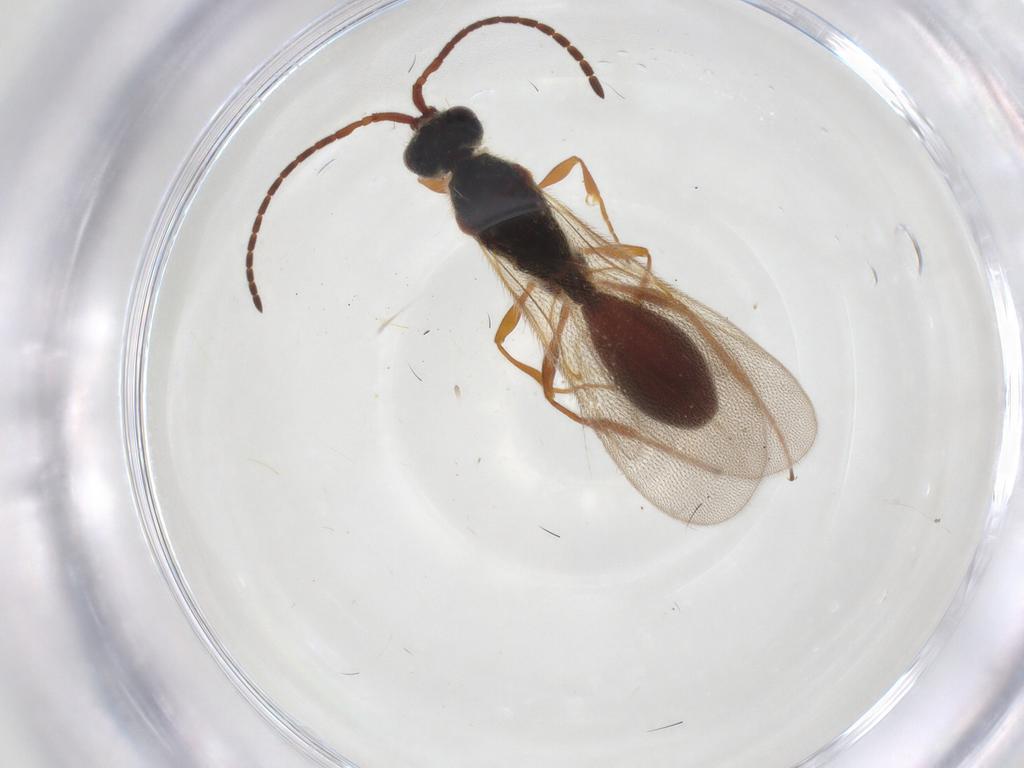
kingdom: Animalia
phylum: Arthropoda
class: Insecta
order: Hymenoptera
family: Diapriidae
